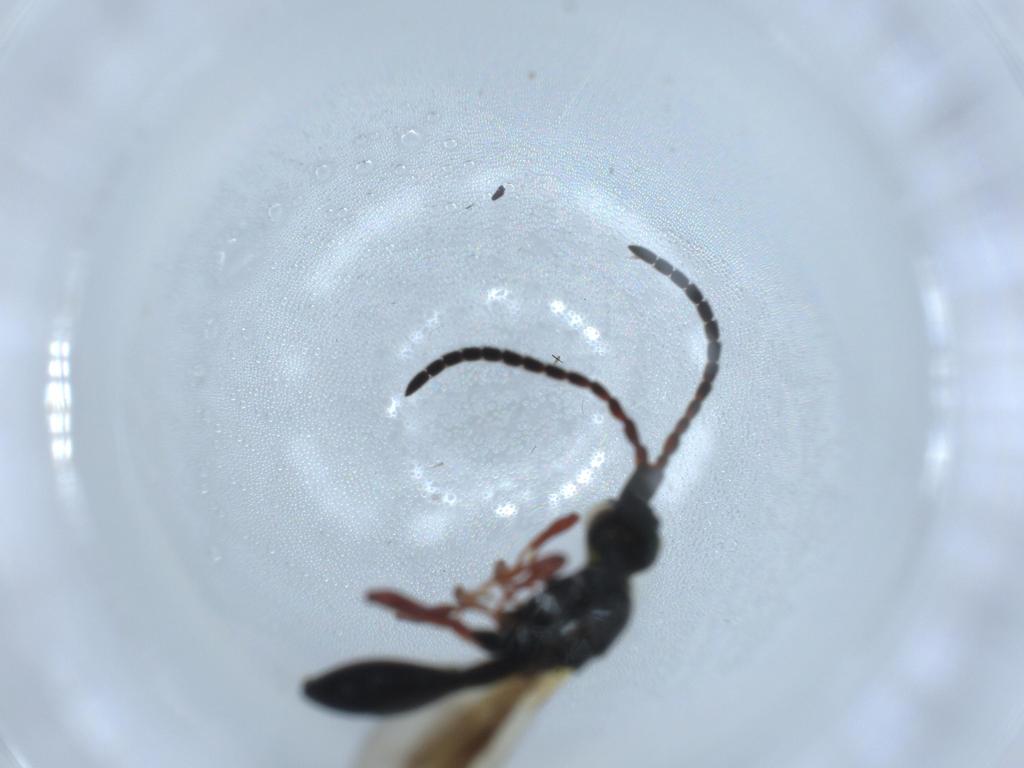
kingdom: Animalia
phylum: Arthropoda
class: Insecta
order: Hymenoptera
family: Diapriidae
